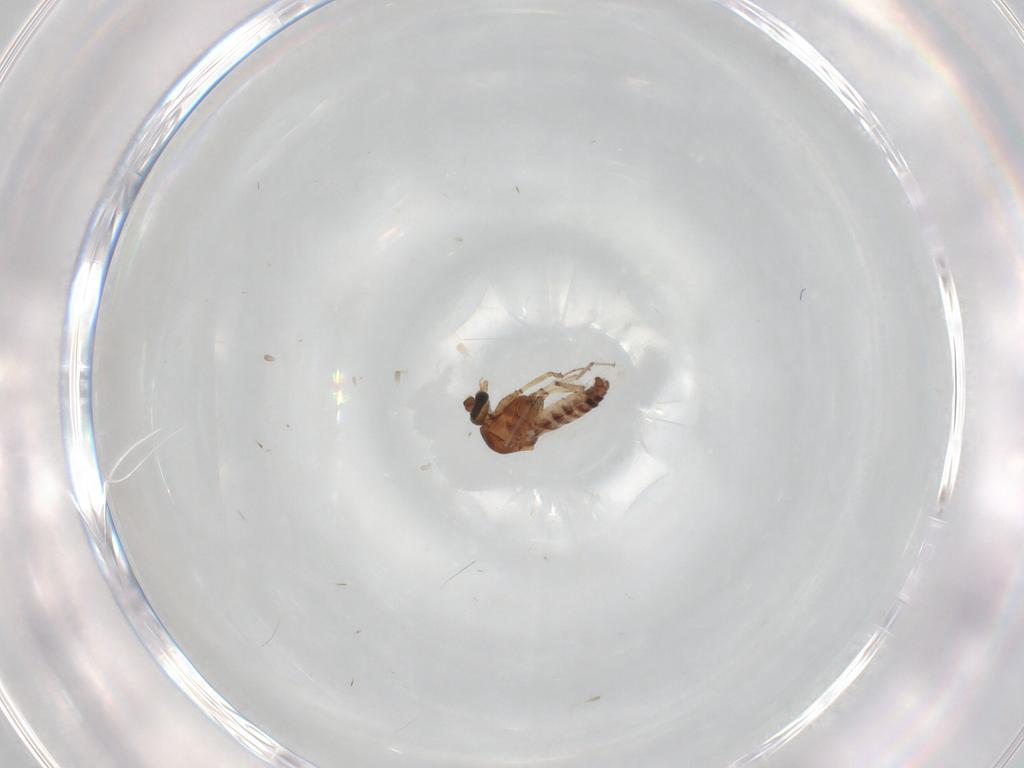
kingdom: Animalia
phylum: Arthropoda
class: Insecta
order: Diptera
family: Ceratopogonidae
